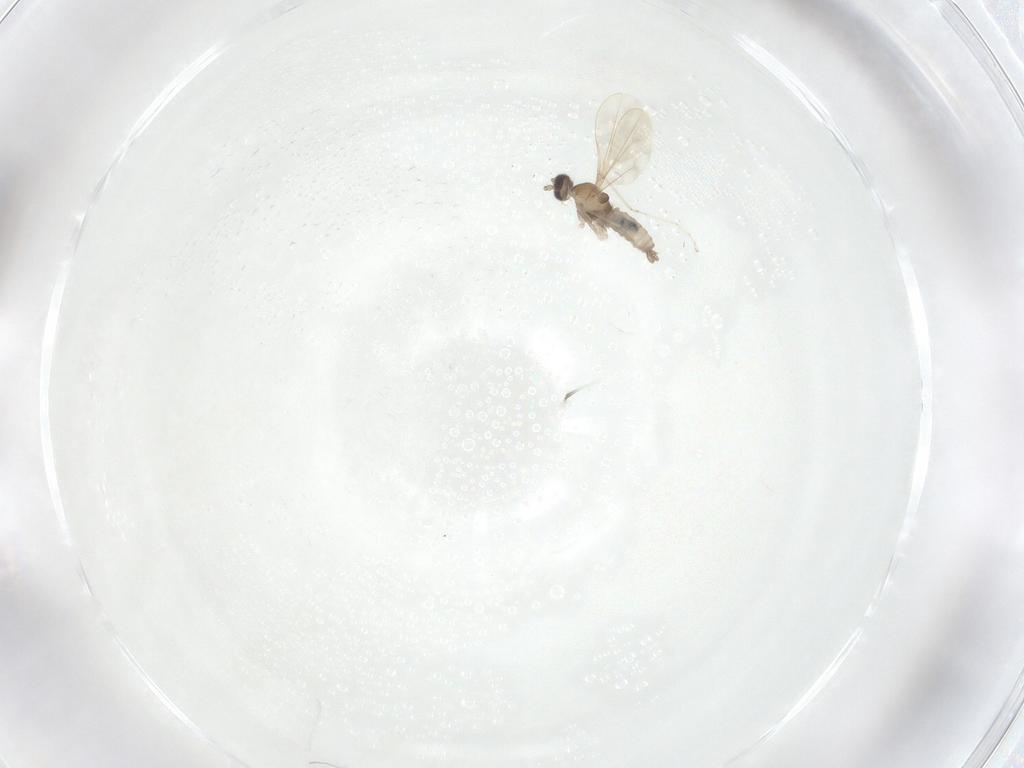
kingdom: Animalia
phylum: Arthropoda
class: Insecta
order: Diptera
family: Cecidomyiidae
